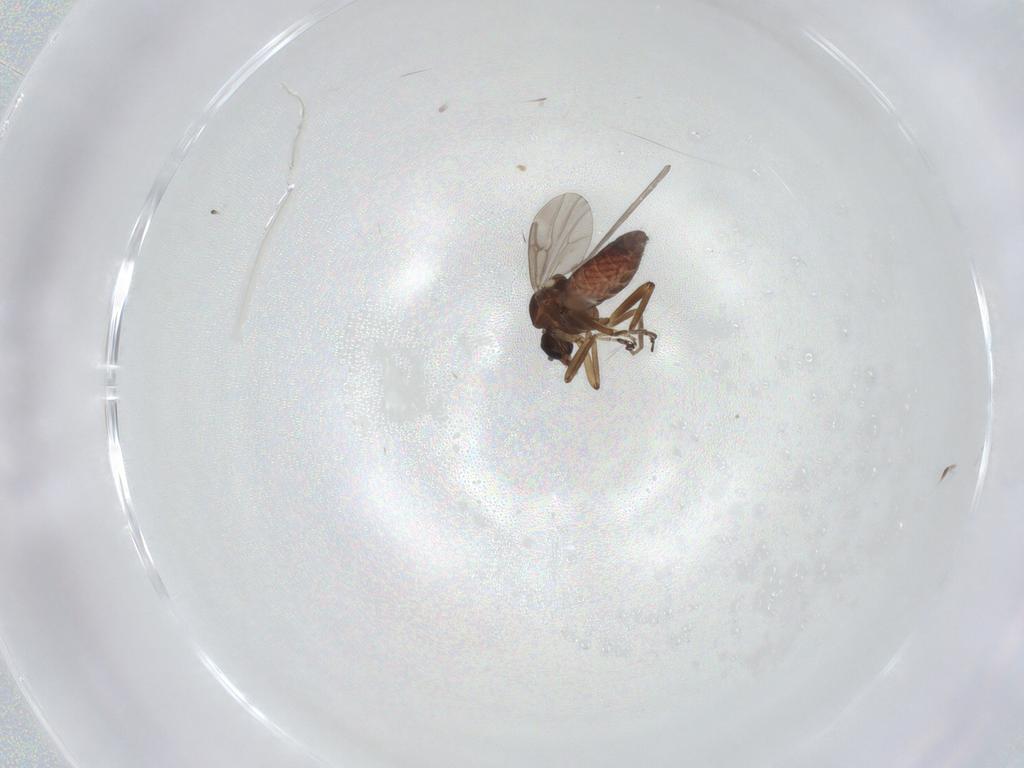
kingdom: Animalia
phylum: Arthropoda
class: Insecta
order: Diptera
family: Ceratopogonidae
